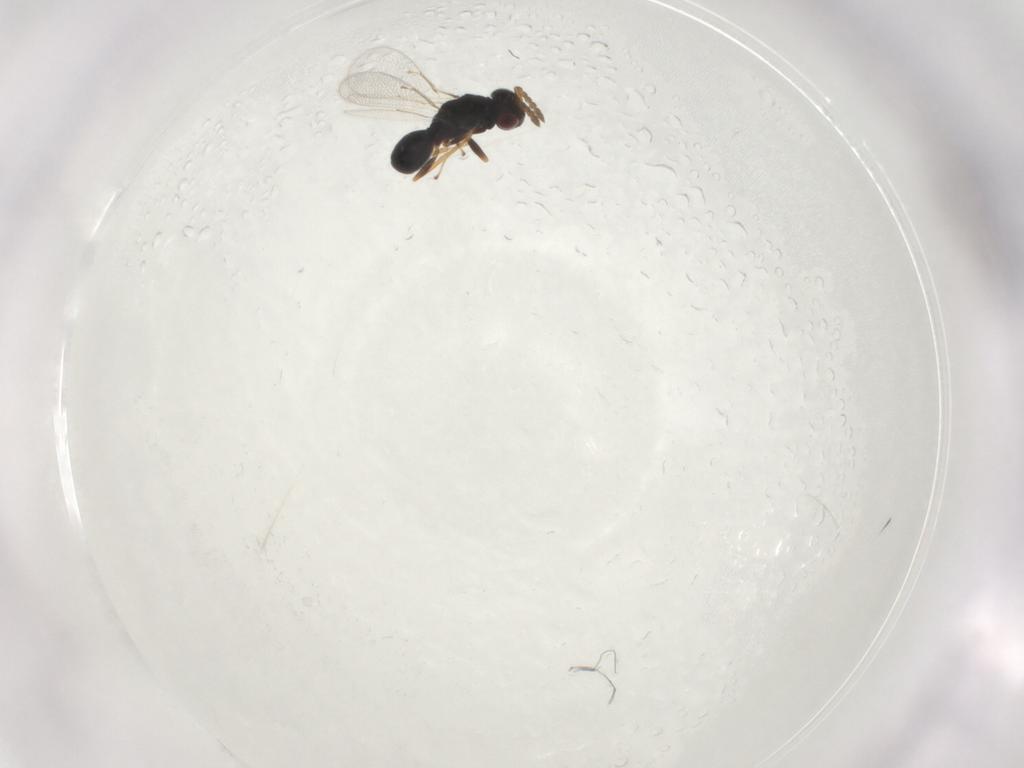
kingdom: Animalia
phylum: Arthropoda
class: Insecta
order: Hymenoptera
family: Eulophidae
